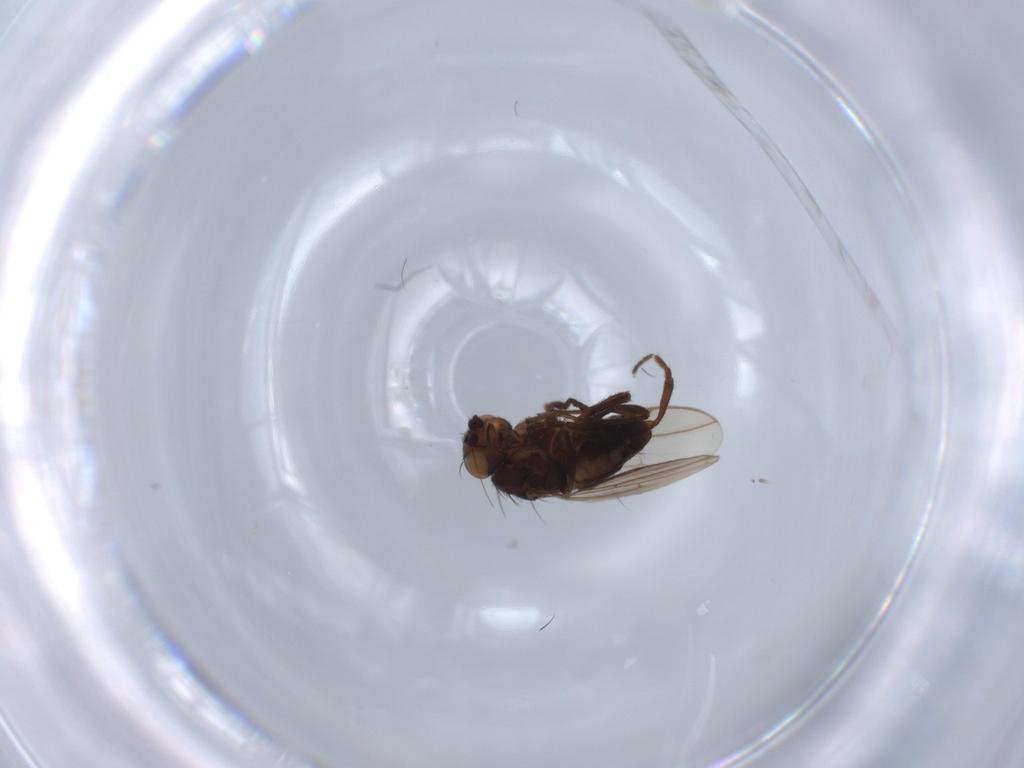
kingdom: Animalia
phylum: Arthropoda
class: Insecta
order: Diptera
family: Sphaeroceridae
